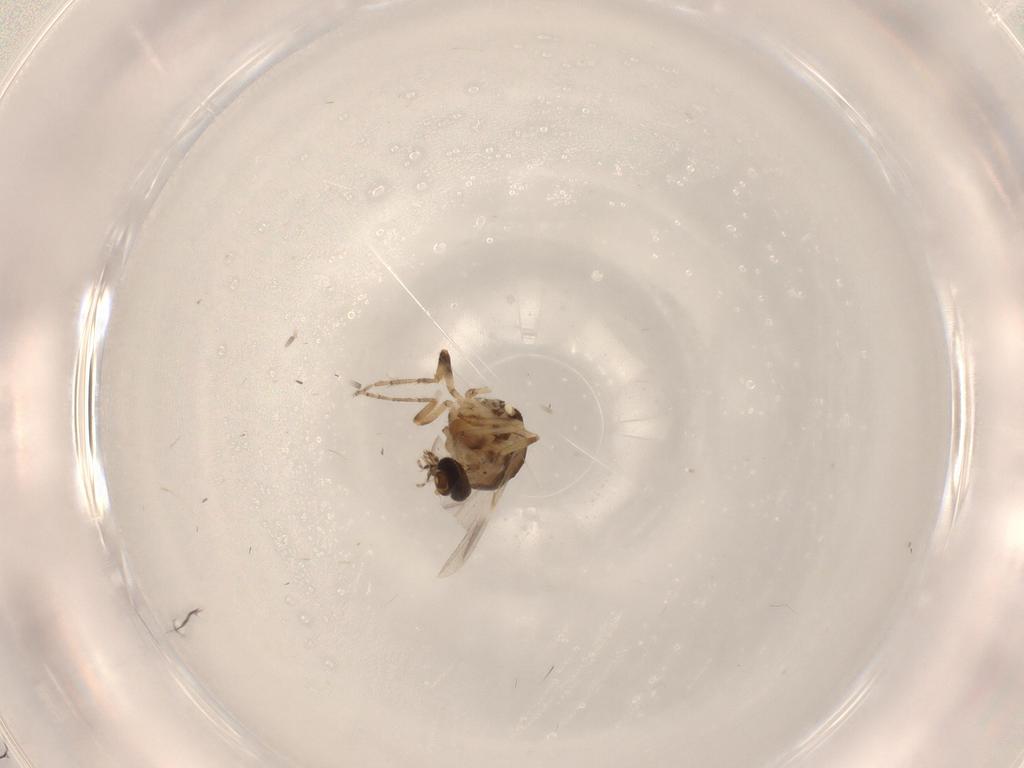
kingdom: Animalia
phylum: Arthropoda
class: Insecta
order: Diptera
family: Chironomidae
